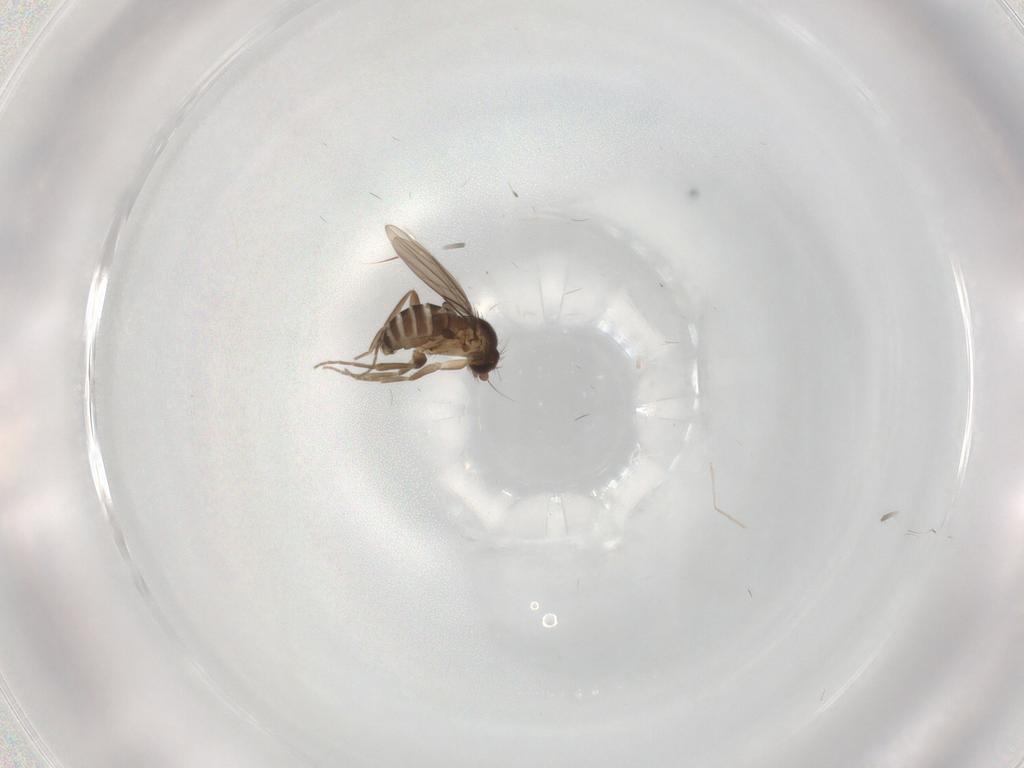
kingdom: Animalia
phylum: Arthropoda
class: Insecta
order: Diptera
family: Phoridae
